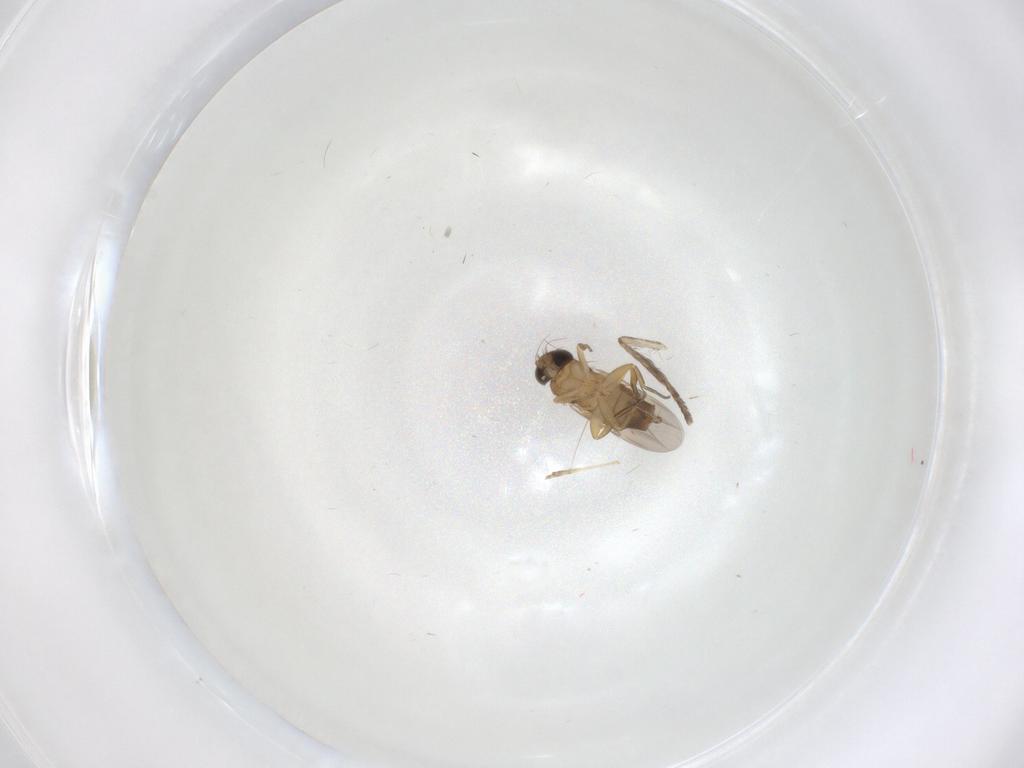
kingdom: Animalia
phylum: Arthropoda
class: Insecta
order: Diptera
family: Phoridae
